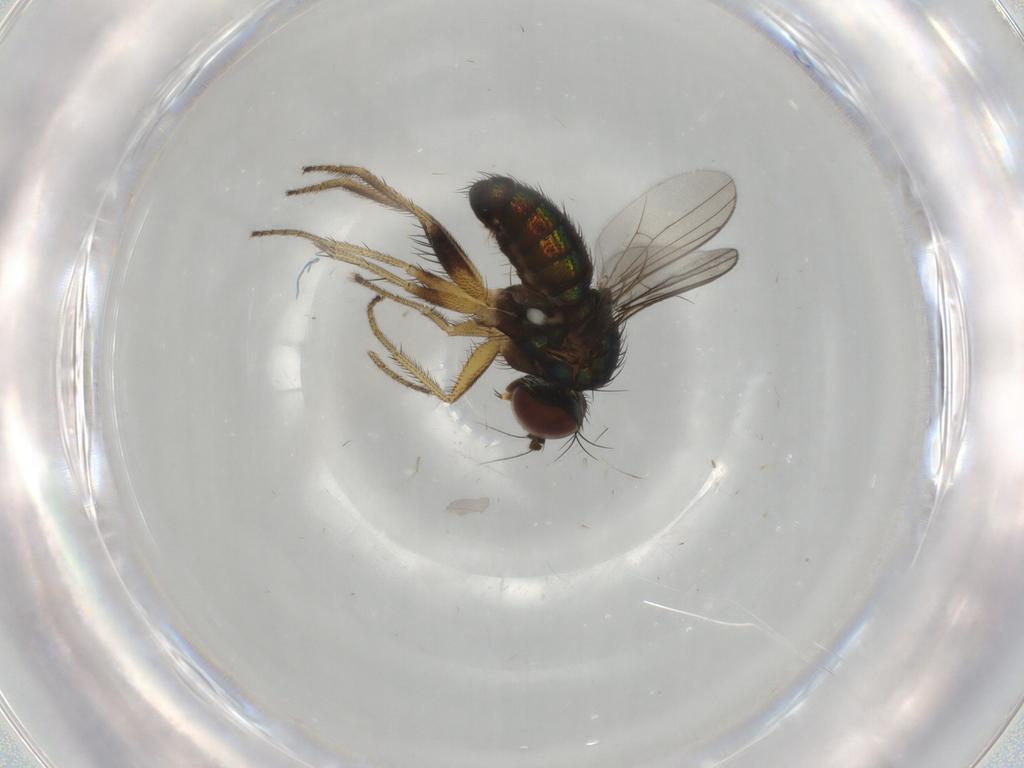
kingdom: Animalia
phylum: Arthropoda
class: Insecta
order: Diptera
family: Dolichopodidae
